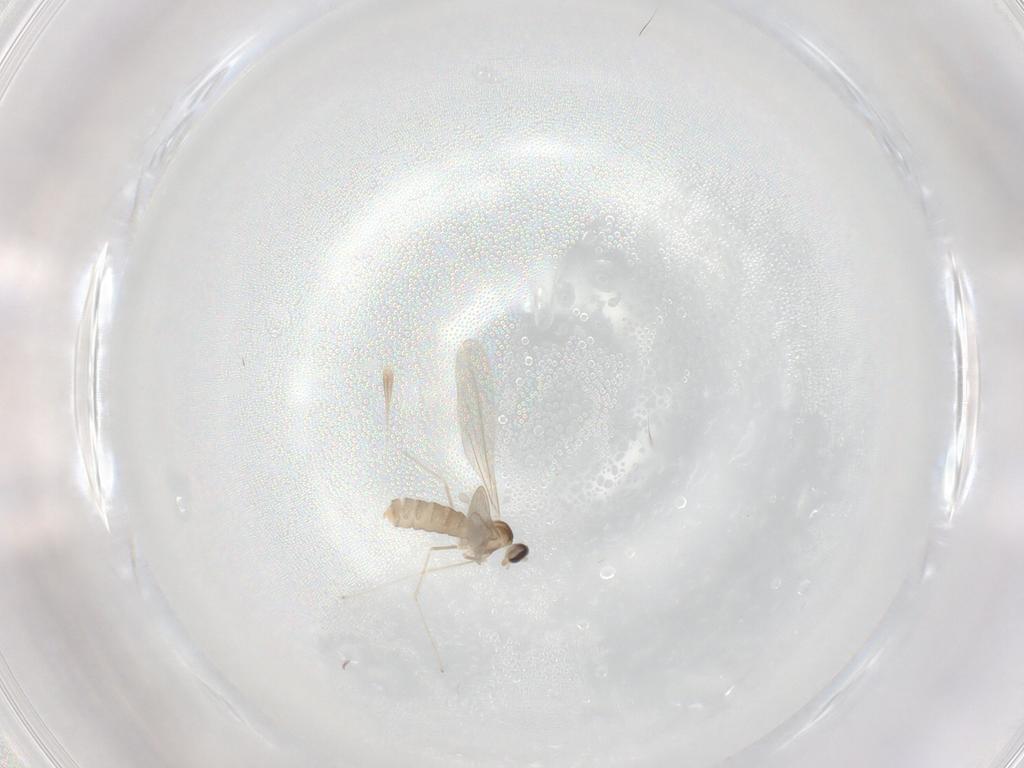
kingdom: Animalia
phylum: Arthropoda
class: Insecta
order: Diptera
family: Cecidomyiidae
